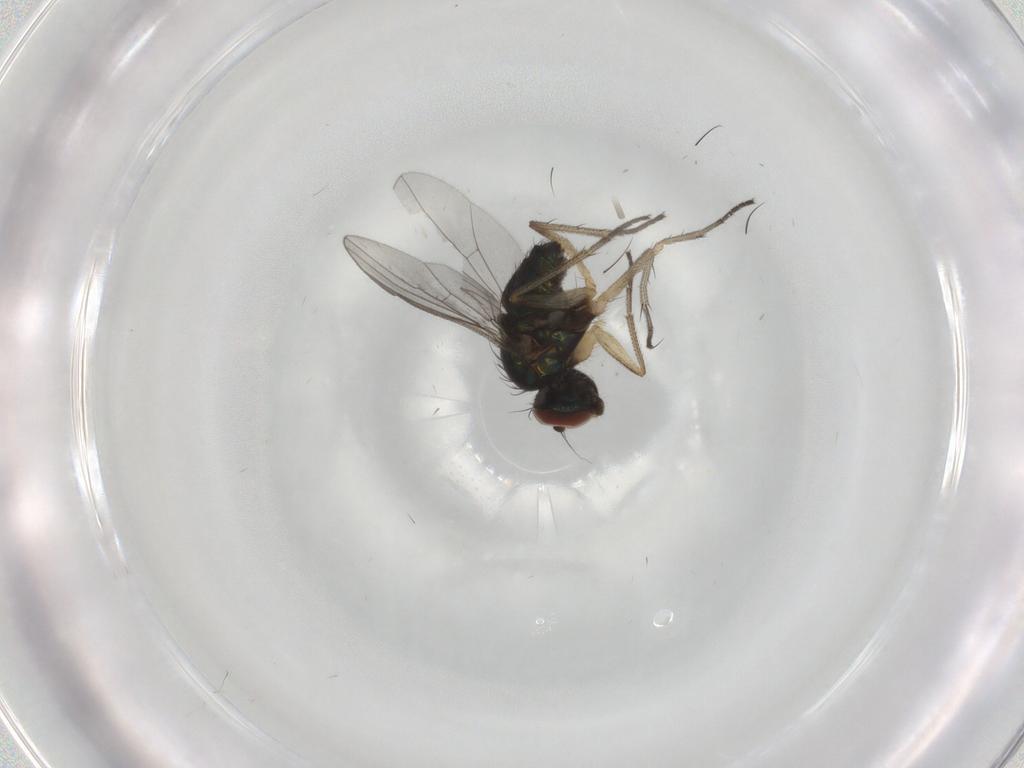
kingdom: Animalia
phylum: Arthropoda
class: Insecta
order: Diptera
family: Dolichopodidae
